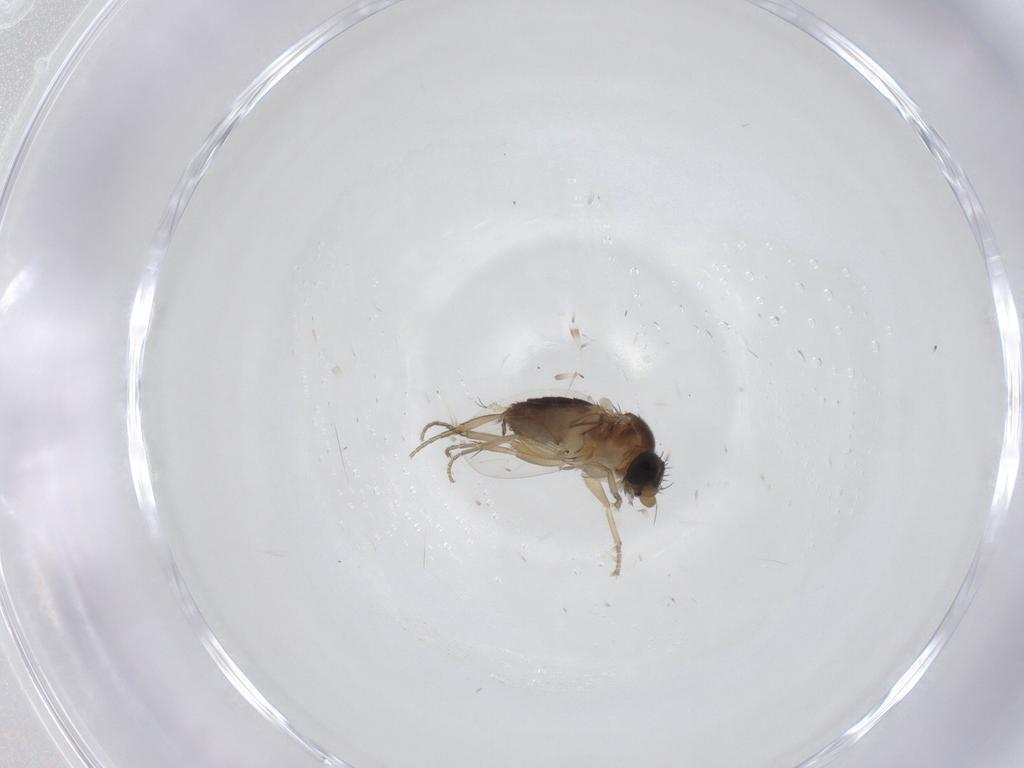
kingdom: Animalia
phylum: Arthropoda
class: Insecta
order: Diptera
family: Phoridae
